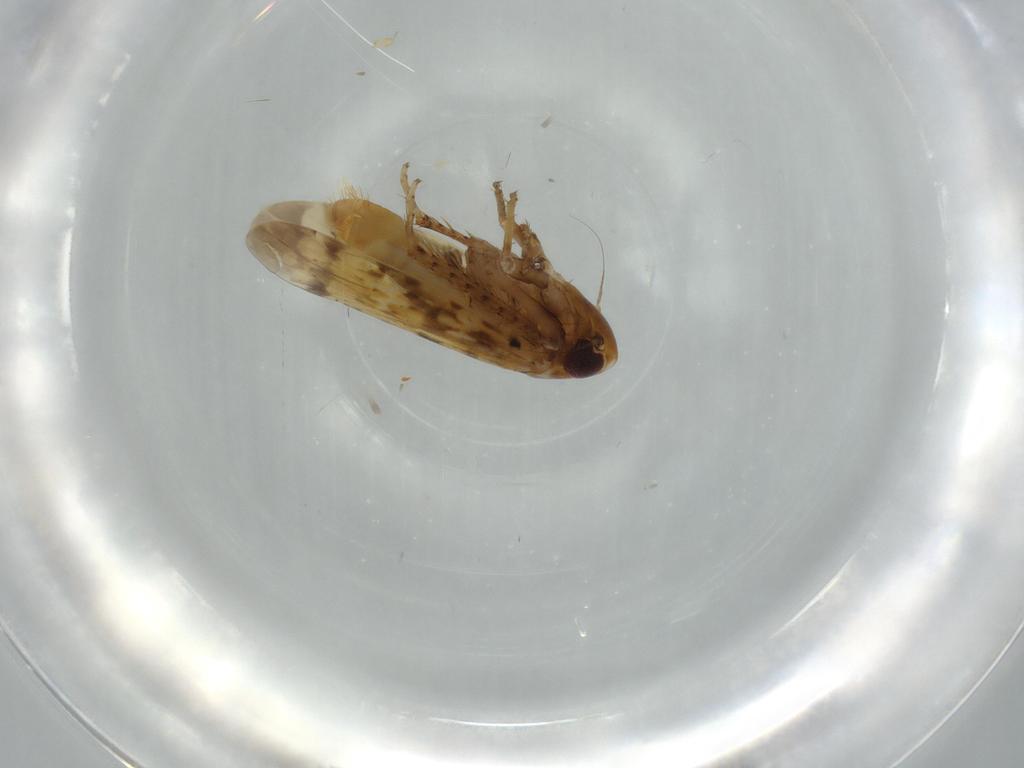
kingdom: Animalia
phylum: Arthropoda
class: Insecta
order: Hemiptera
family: Cicadellidae
